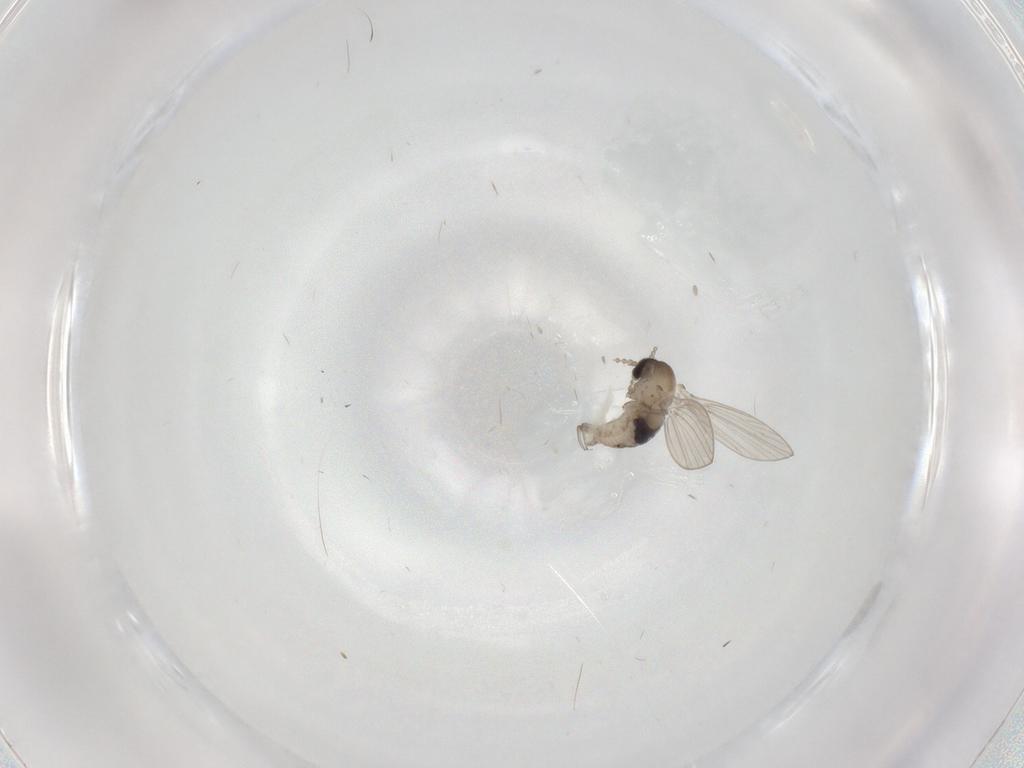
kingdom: Animalia
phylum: Arthropoda
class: Insecta
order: Diptera
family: Psychodidae
